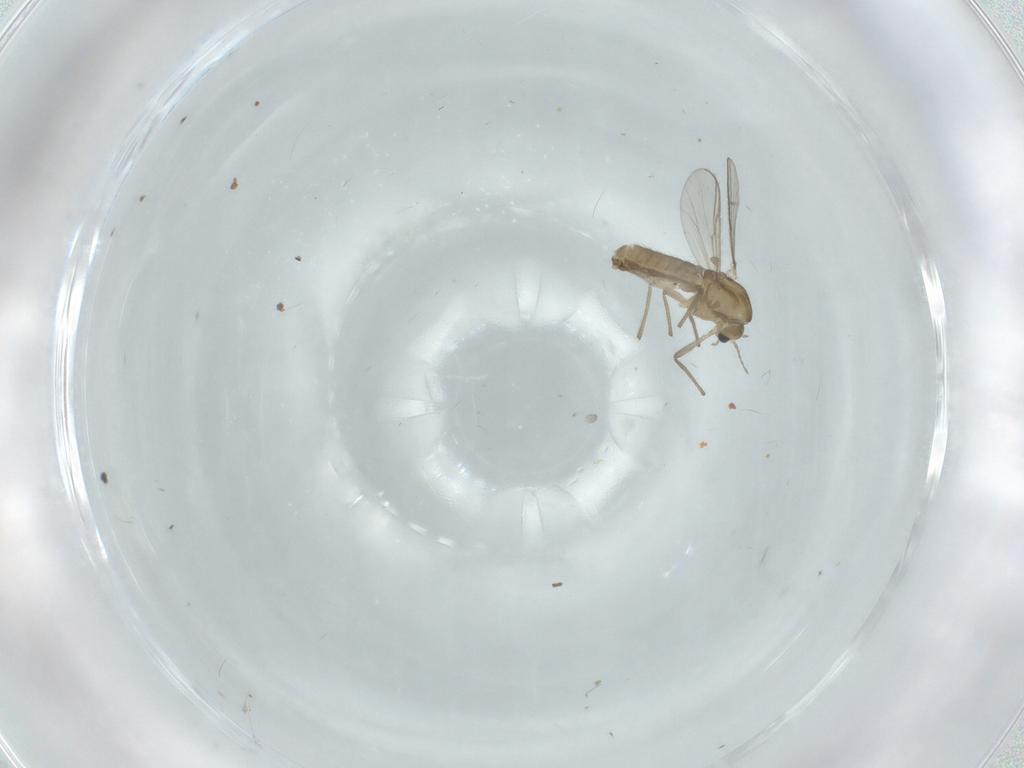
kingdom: Animalia
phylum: Arthropoda
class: Insecta
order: Diptera
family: Chironomidae
